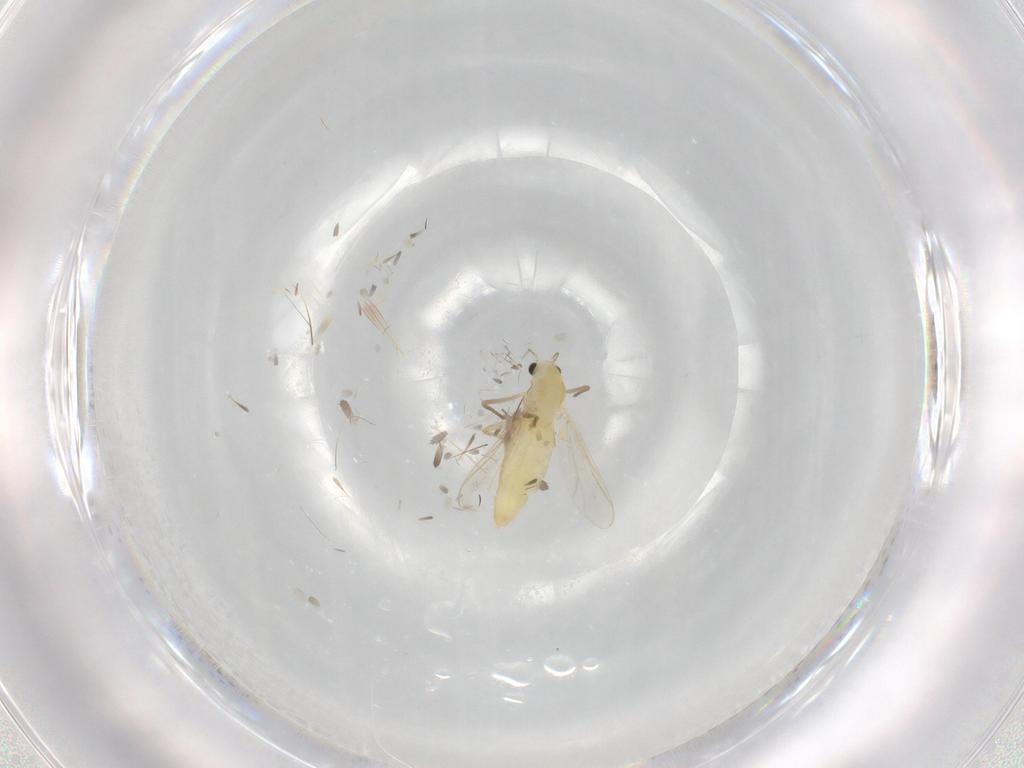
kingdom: Animalia
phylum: Arthropoda
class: Insecta
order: Diptera
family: Chironomidae
